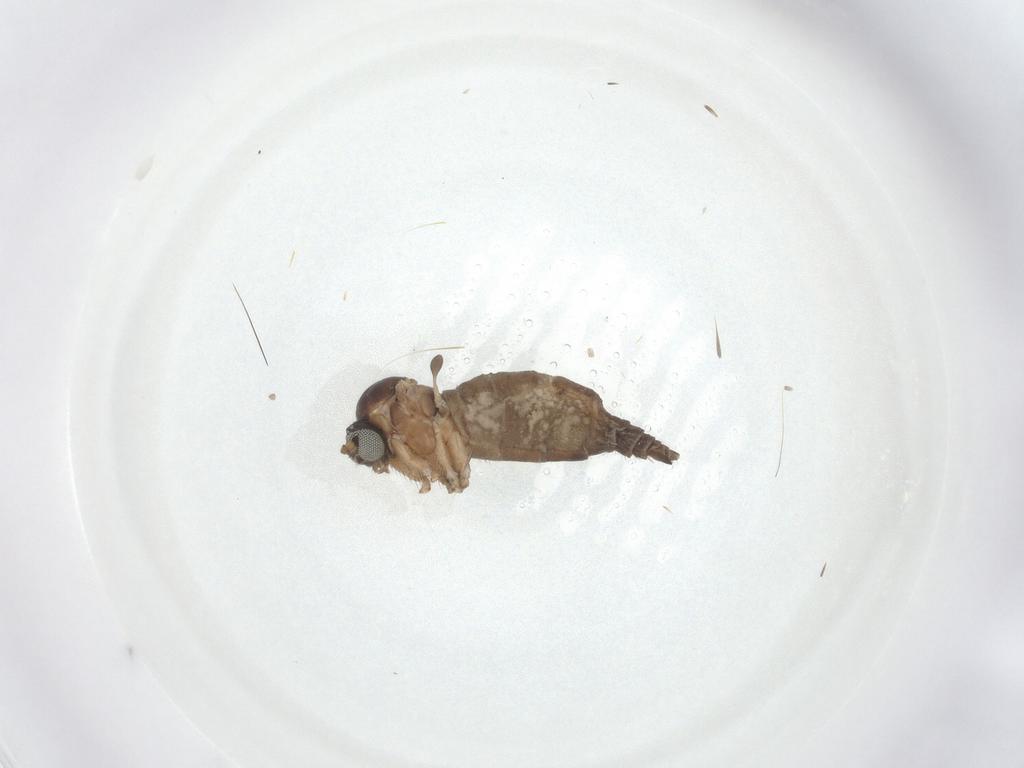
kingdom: Animalia
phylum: Arthropoda
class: Insecta
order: Diptera
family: Sciaridae
